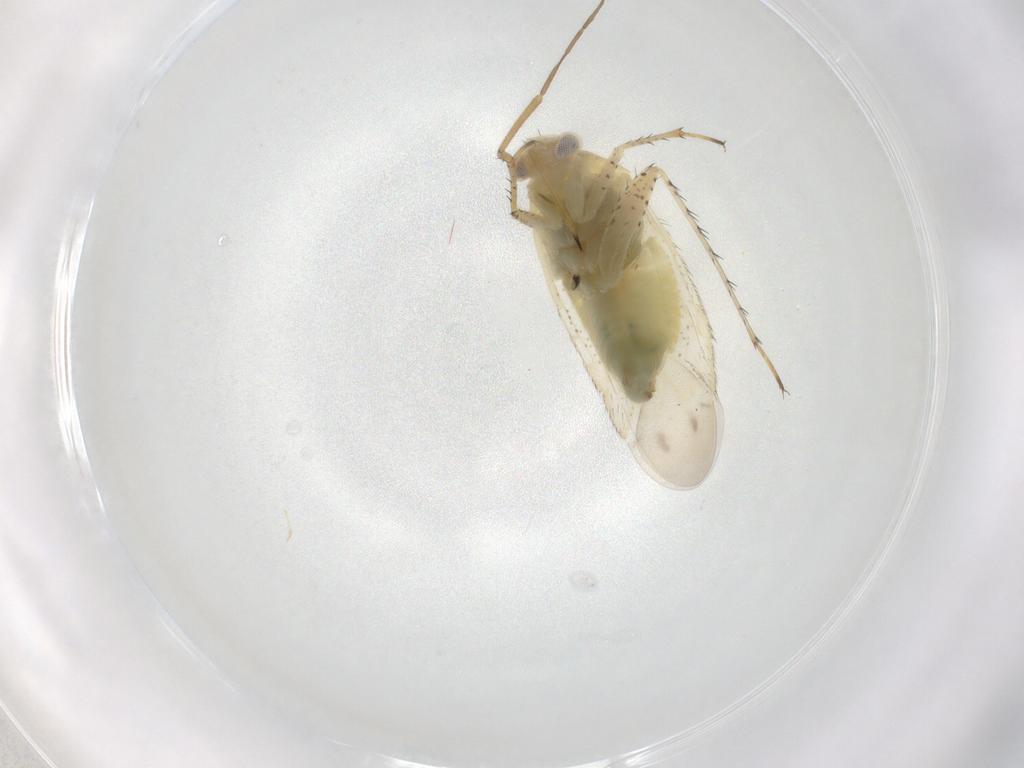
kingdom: Animalia
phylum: Arthropoda
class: Insecta
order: Hemiptera
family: Miridae
